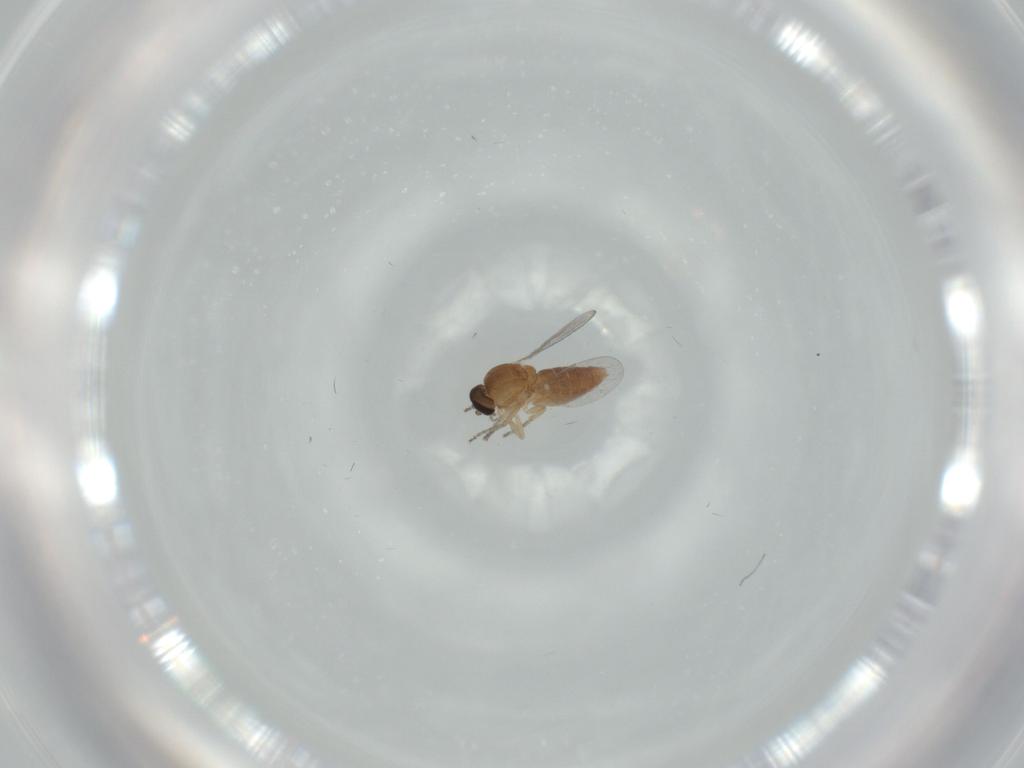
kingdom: Animalia
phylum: Arthropoda
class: Insecta
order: Diptera
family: Ceratopogonidae
